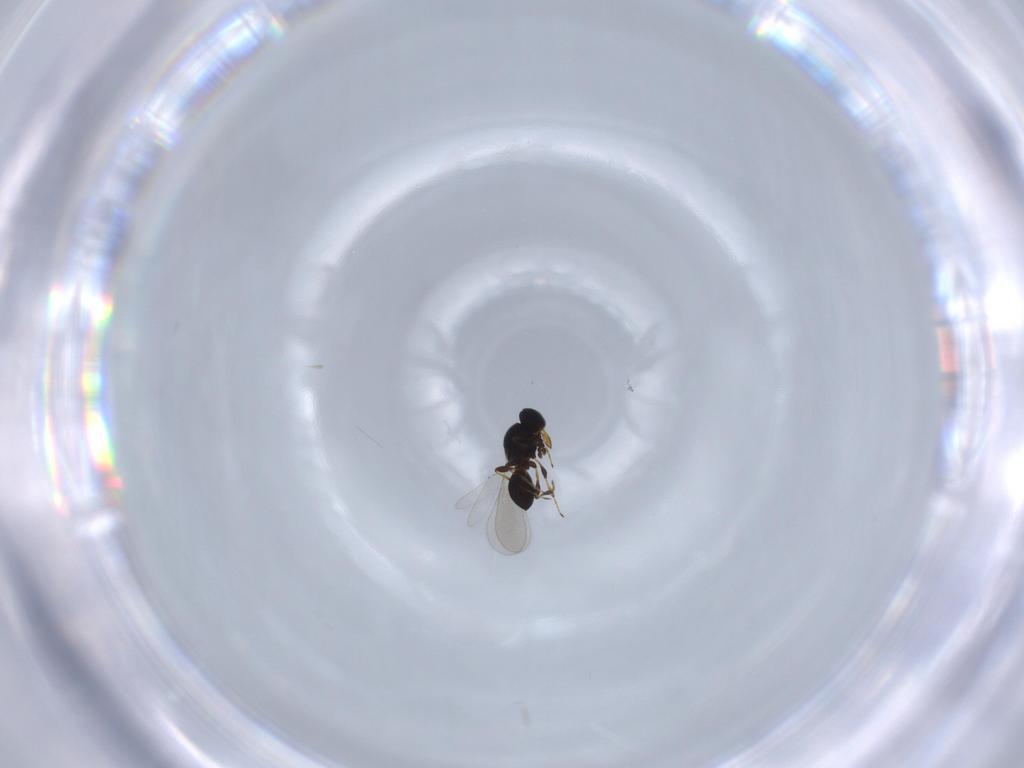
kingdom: Animalia
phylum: Arthropoda
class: Insecta
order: Hymenoptera
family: Platygastridae
